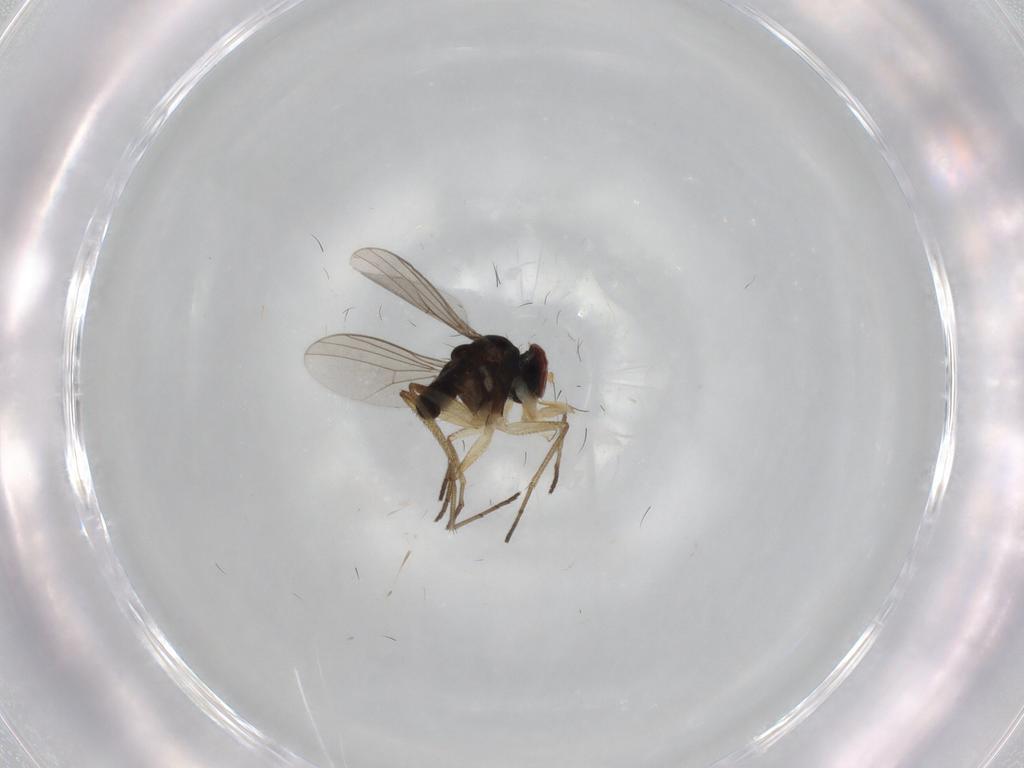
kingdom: Animalia
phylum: Arthropoda
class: Insecta
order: Diptera
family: Dolichopodidae
